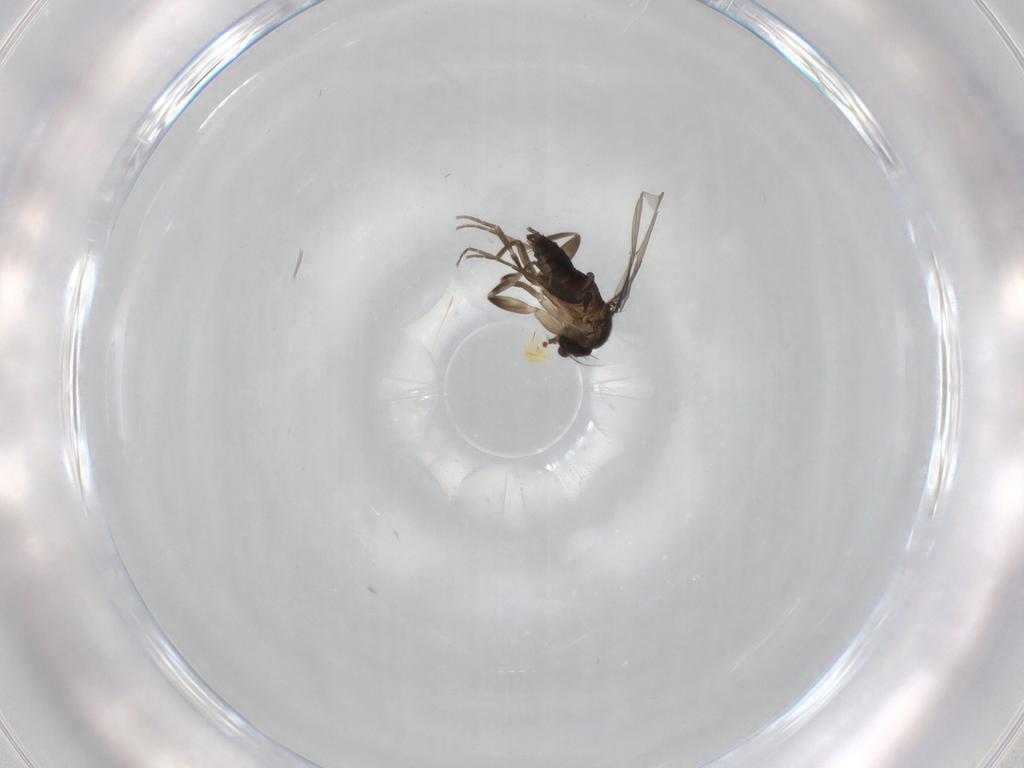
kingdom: Animalia
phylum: Arthropoda
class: Insecta
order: Diptera
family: Phoridae
